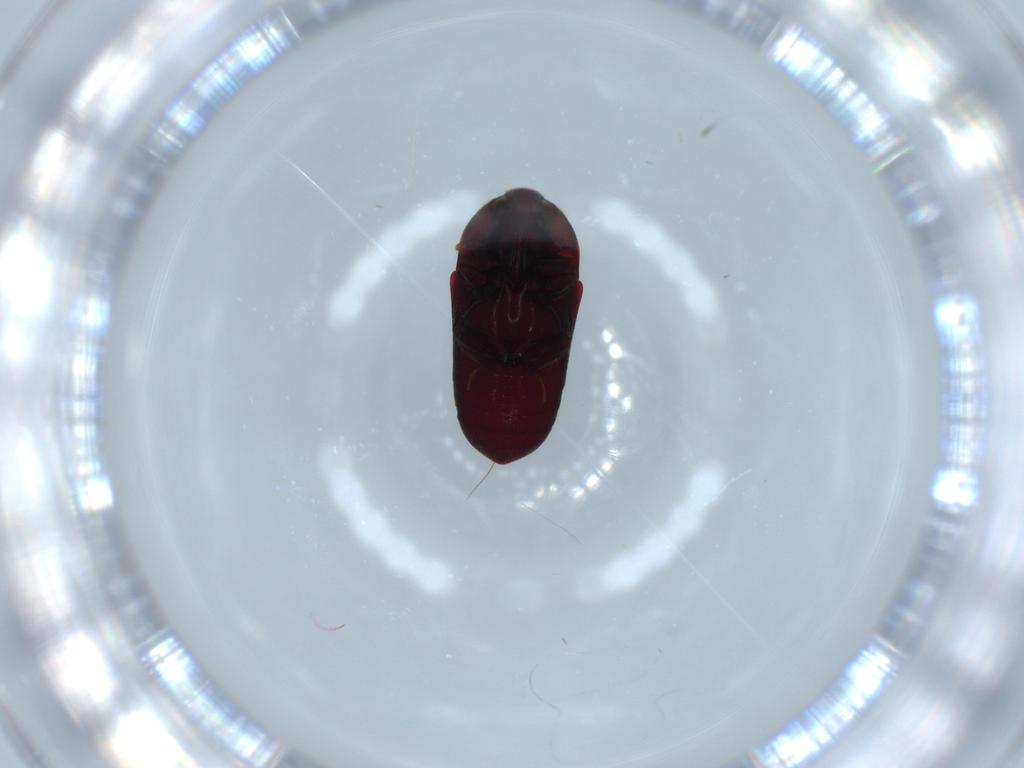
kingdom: Animalia
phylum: Arthropoda
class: Insecta
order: Coleoptera
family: Throscidae
